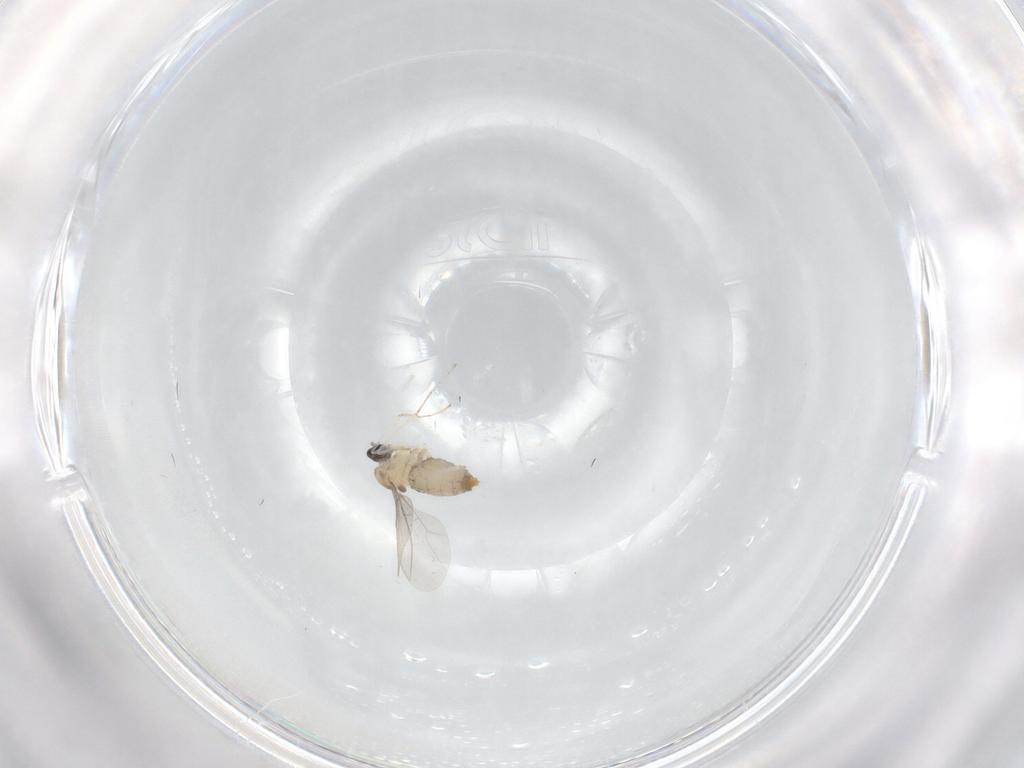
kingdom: Animalia
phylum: Arthropoda
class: Insecta
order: Diptera
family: Cecidomyiidae
